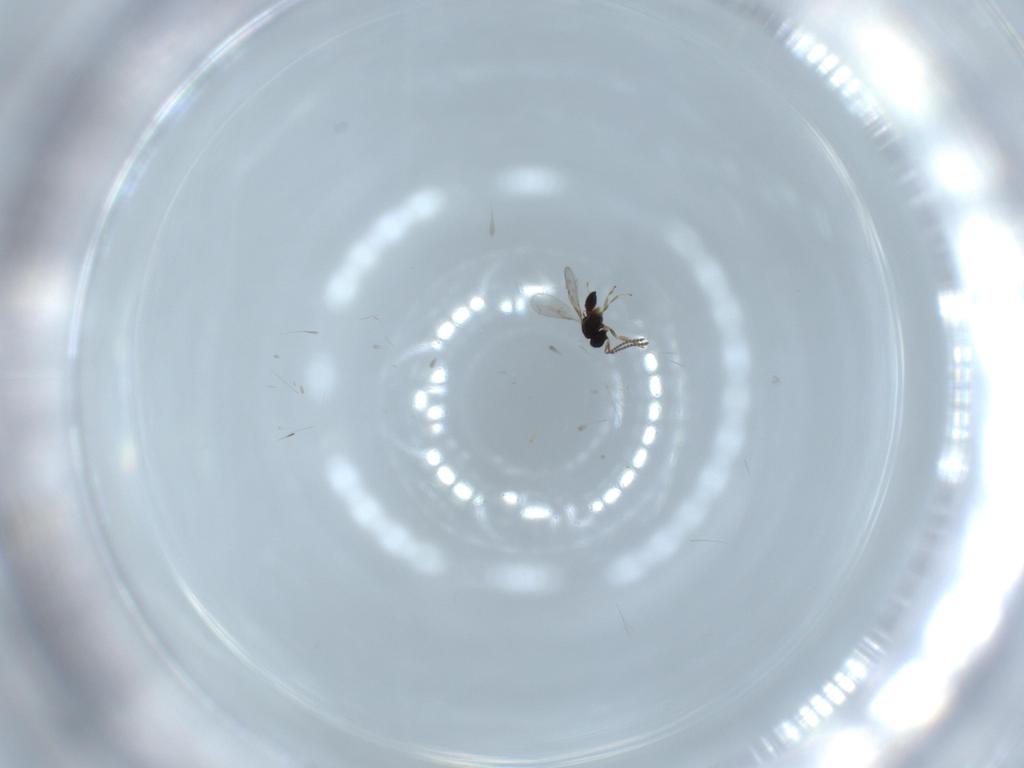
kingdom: Animalia
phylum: Arthropoda
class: Insecta
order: Hymenoptera
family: Scelionidae
